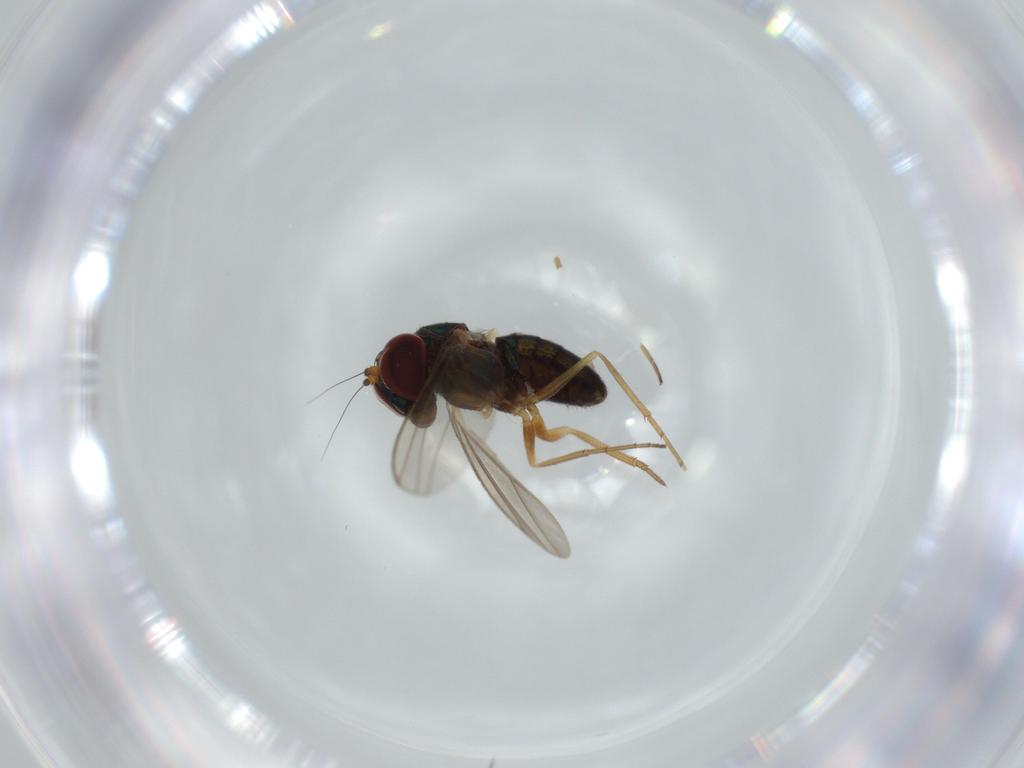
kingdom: Animalia
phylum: Arthropoda
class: Insecta
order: Diptera
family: Dolichopodidae
